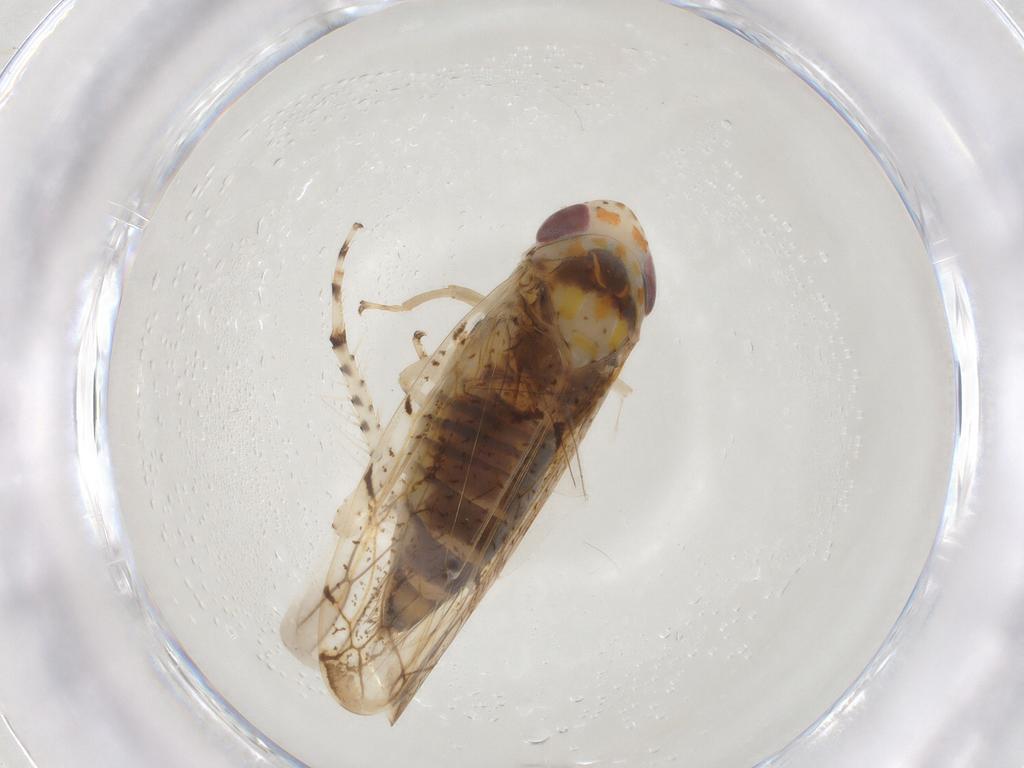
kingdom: Animalia
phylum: Arthropoda
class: Insecta
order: Hemiptera
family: Cicadellidae
